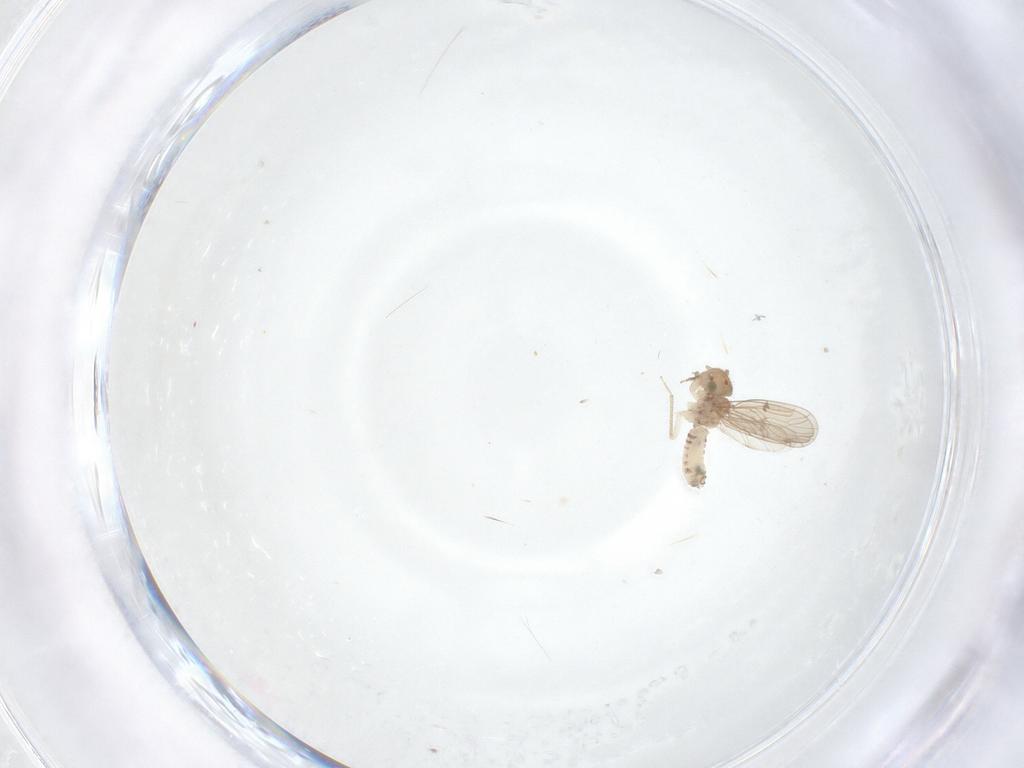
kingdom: Animalia
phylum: Arthropoda
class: Insecta
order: Psocodea
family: Ectopsocidae
